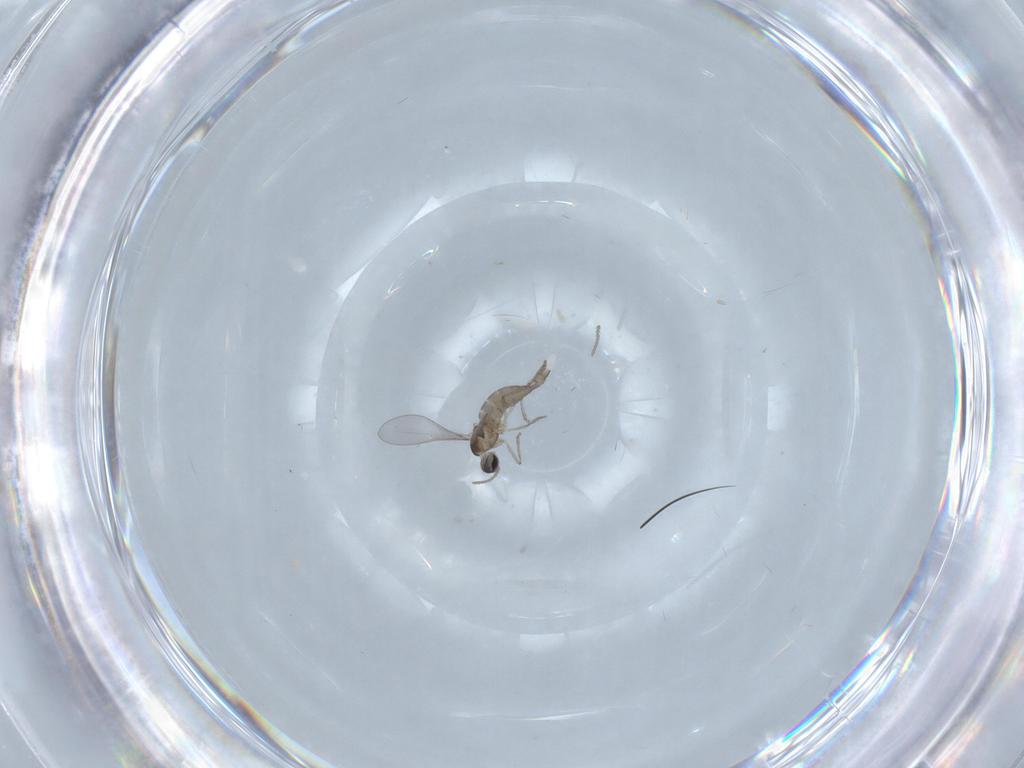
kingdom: Animalia
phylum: Arthropoda
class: Insecta
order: Diptera
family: Cecidomyiidae
